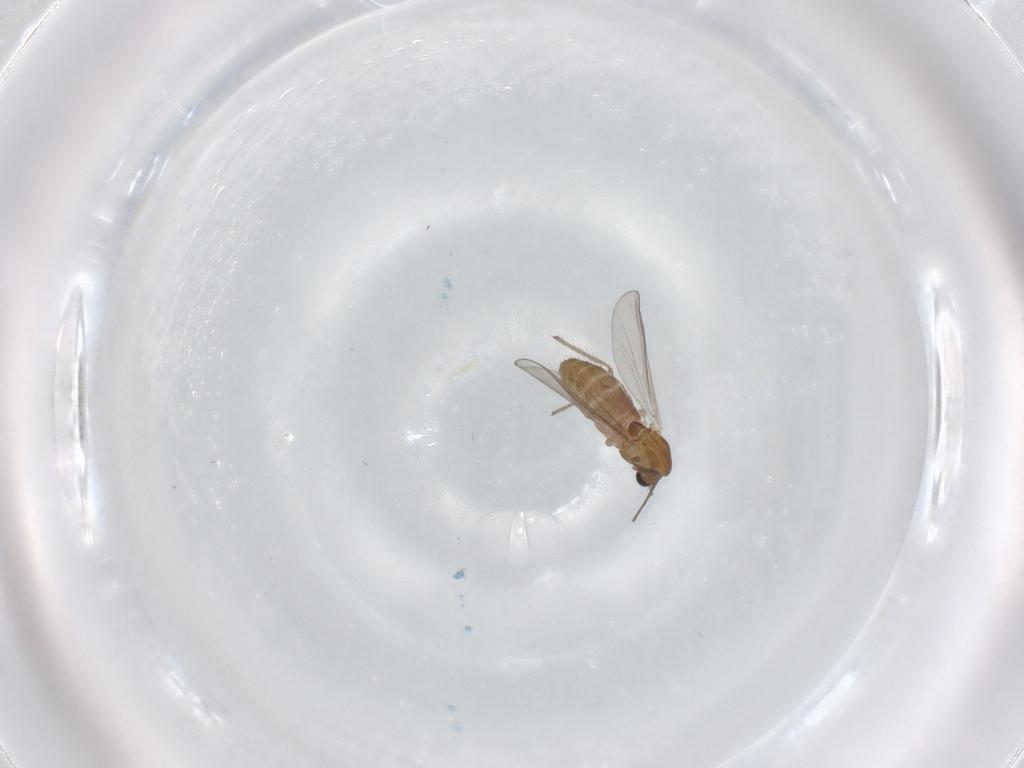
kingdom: Animalia
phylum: Arthropoda
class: Insecta
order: Diptera
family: Chironomidae
